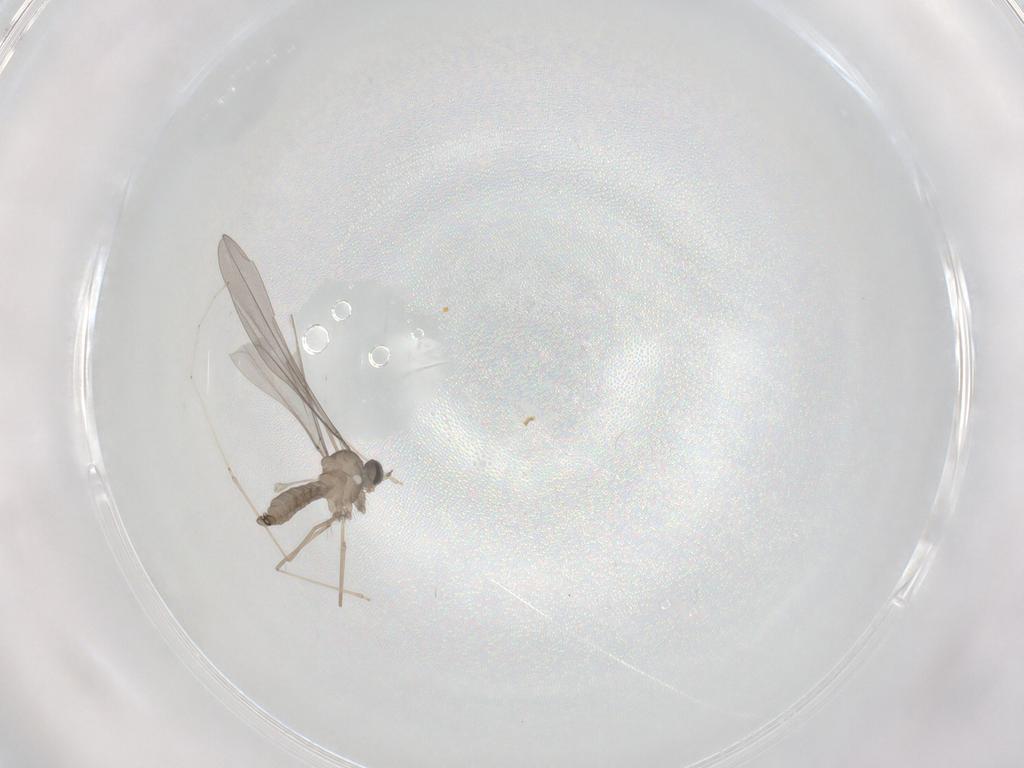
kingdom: Animalia
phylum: Arthropoda
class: Insecta
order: Diptera
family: Cecidomyiidae
